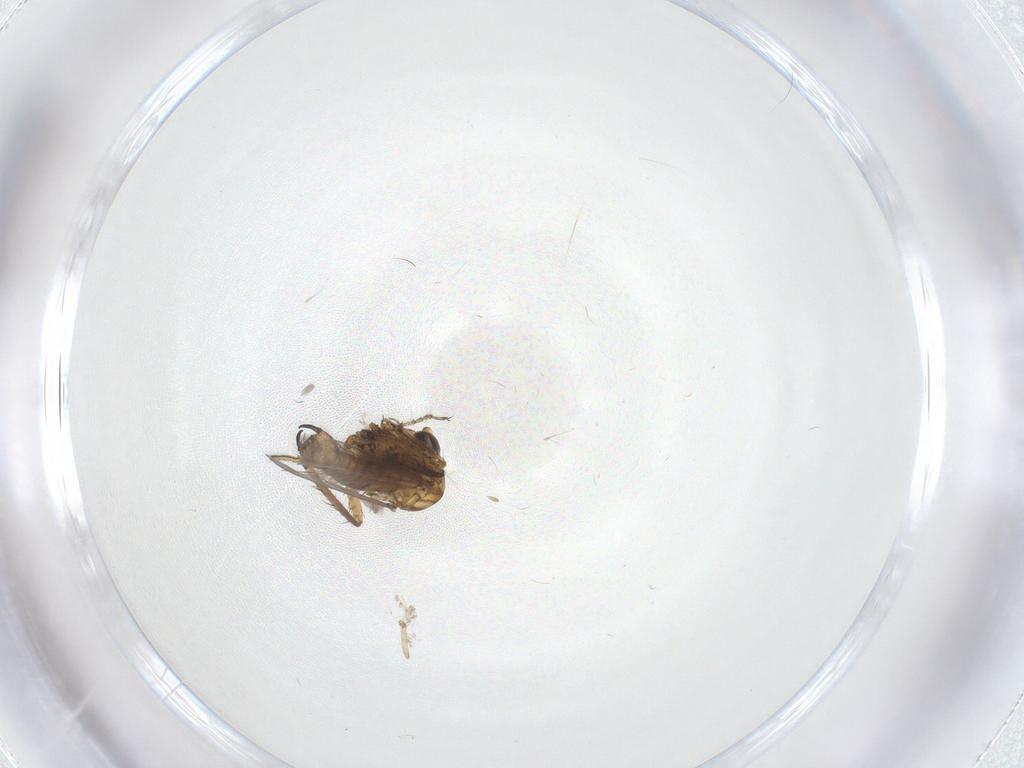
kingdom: Animalia
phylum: Arthropoda
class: Insecta
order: Diptera
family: Cecidomyiidae
